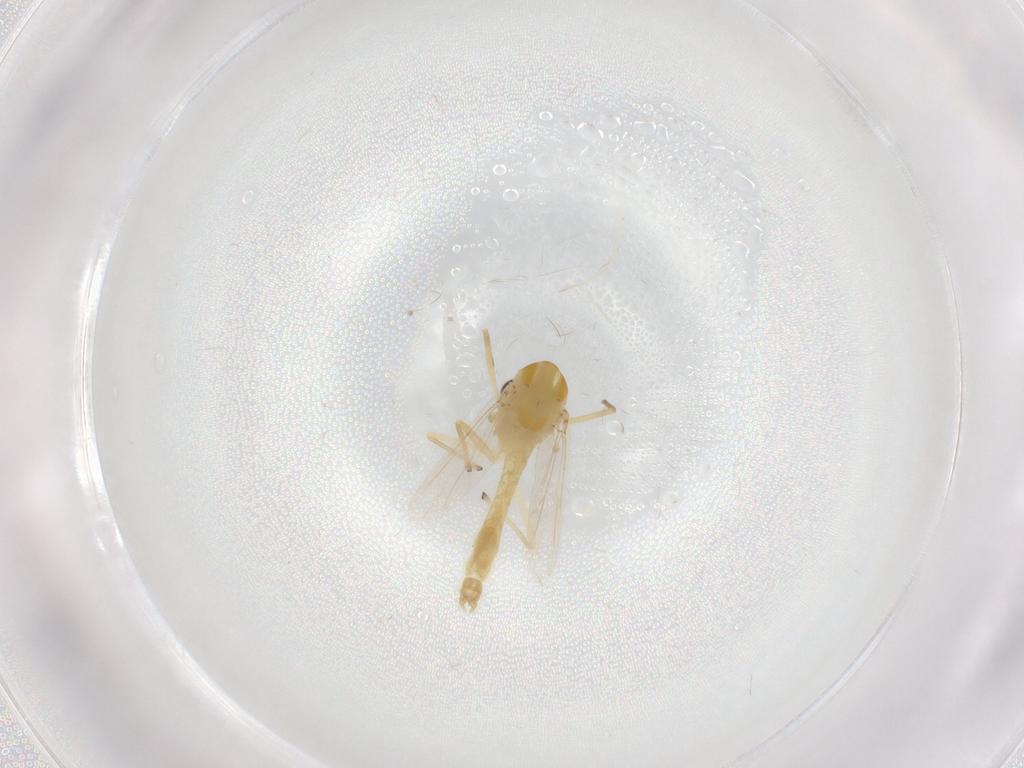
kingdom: Animalia
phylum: Arthropoda
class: Insecta
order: Diptera
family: Chironomidae
